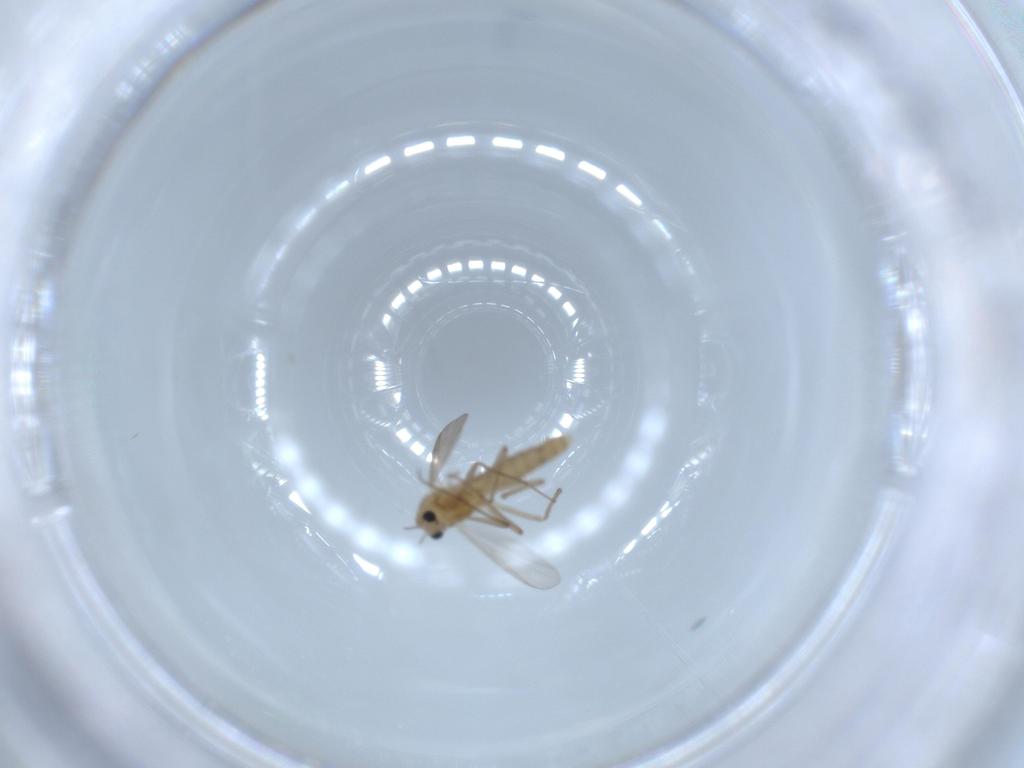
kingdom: Animalia
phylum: Arthropoda
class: Insecta
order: Diptera
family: Chironomidae
